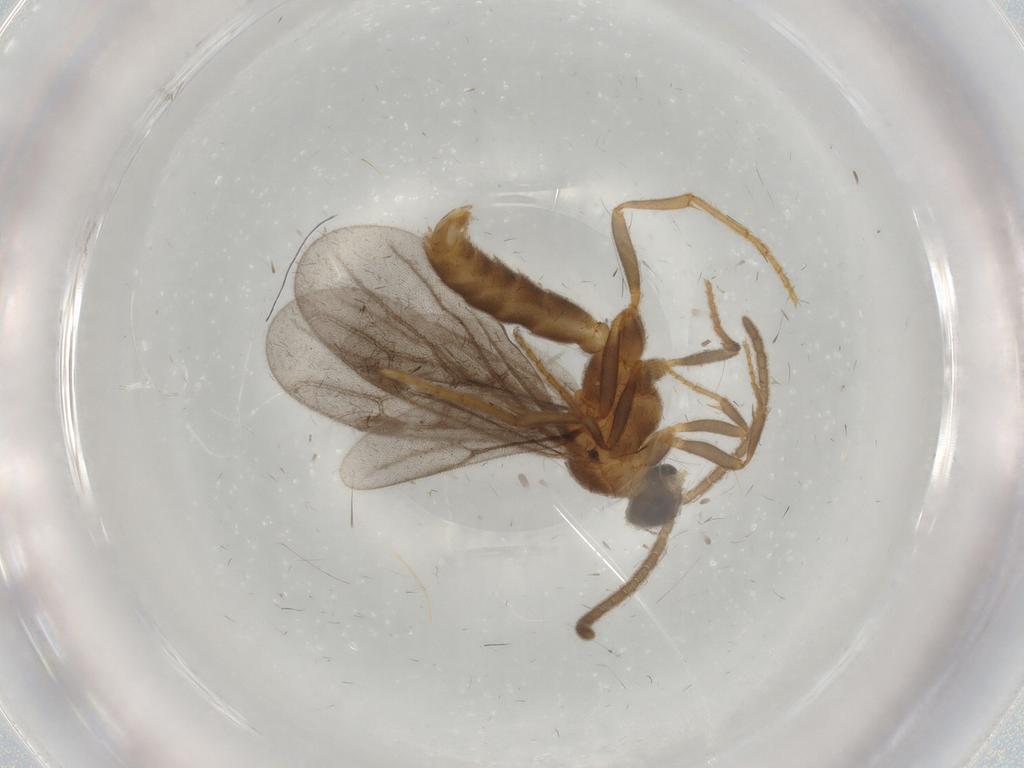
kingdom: Animalia
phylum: Arthropoda
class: Insecta
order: Hymenoptera
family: Formicidae
